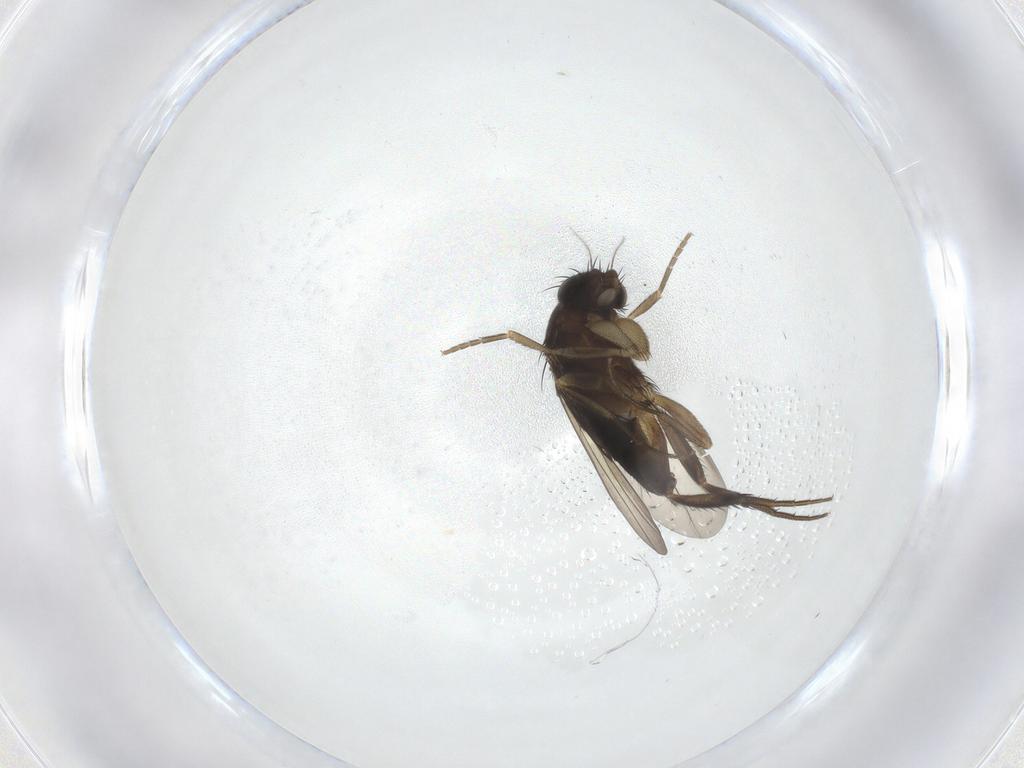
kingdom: Animalia
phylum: Arthropoda
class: Insecta
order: Diptera
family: Phoridae
